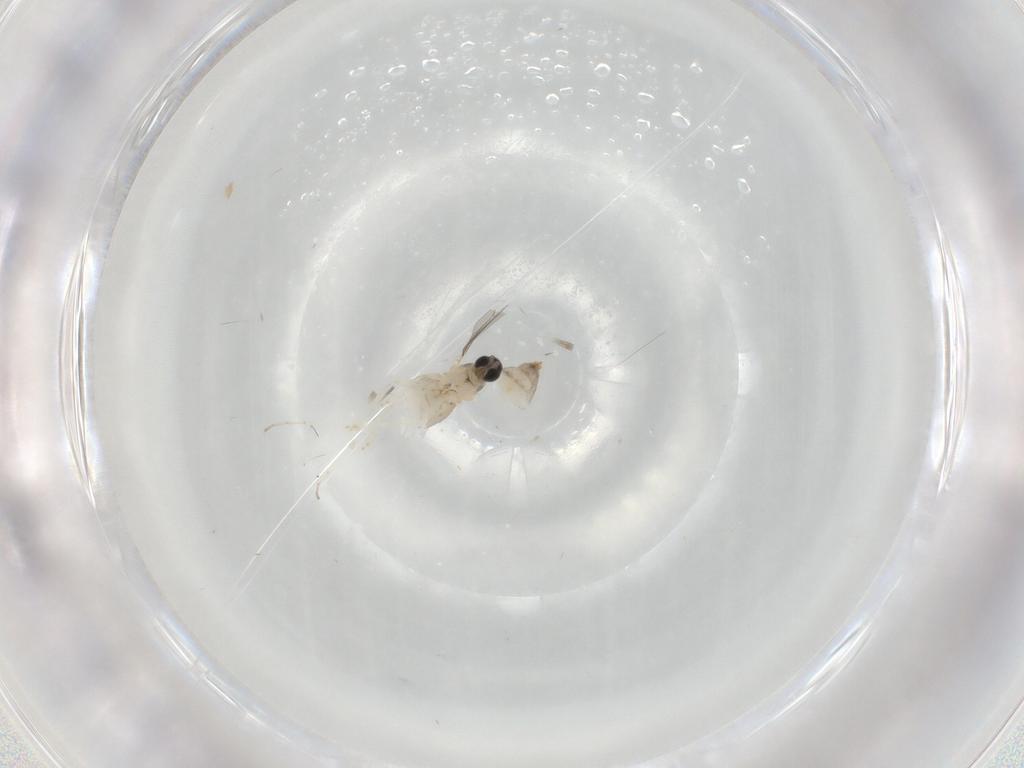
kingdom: Animalia
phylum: Arthropoda
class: Insecta
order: Diptera
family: Cecidomyiidae
